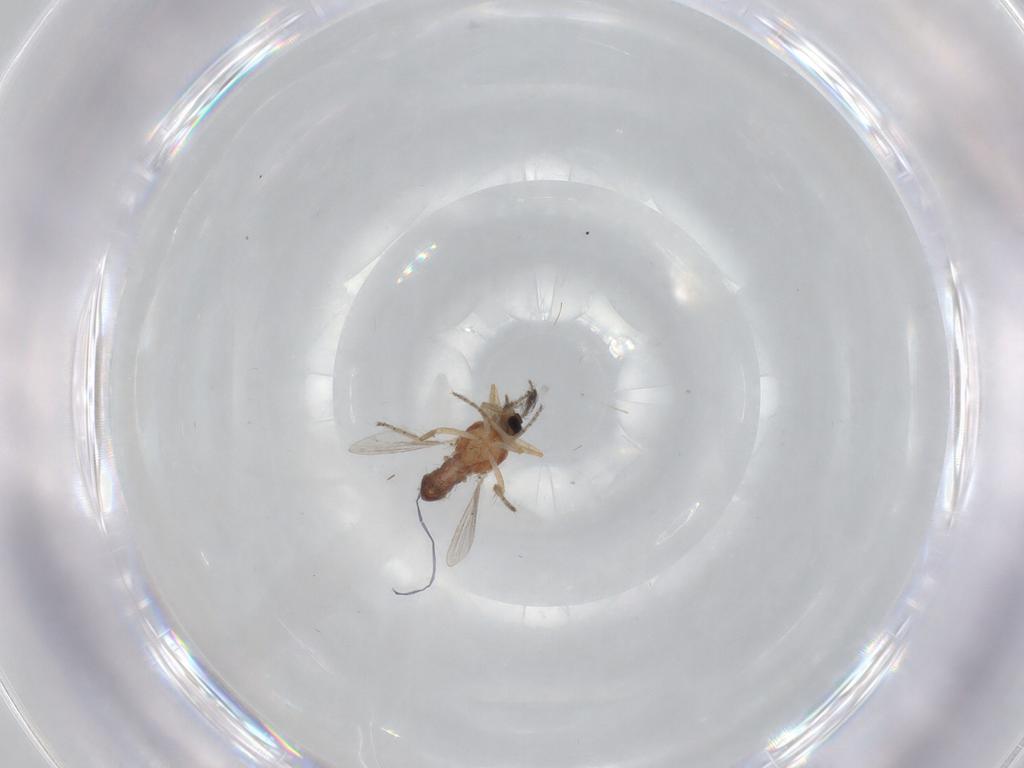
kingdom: Animalia
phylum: Arthropoda
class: Insecta
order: Diptera
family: Ceratopogonidae
